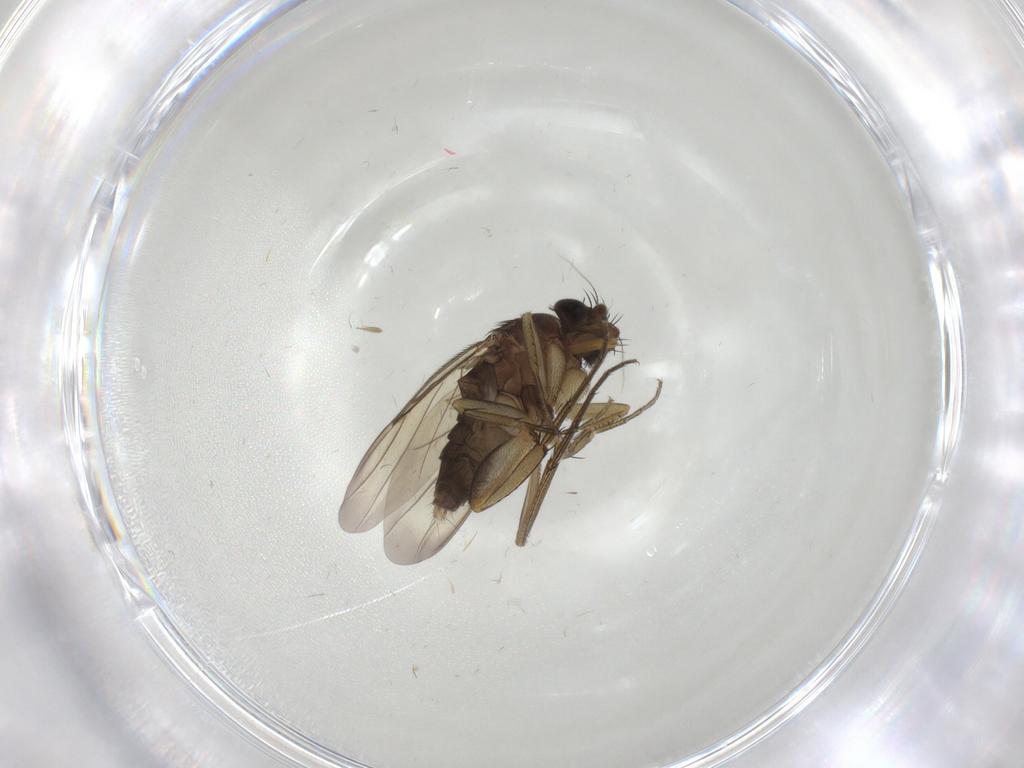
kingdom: Animalia
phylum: Arthropoda
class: Insecta
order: Diptera
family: Phoridae
